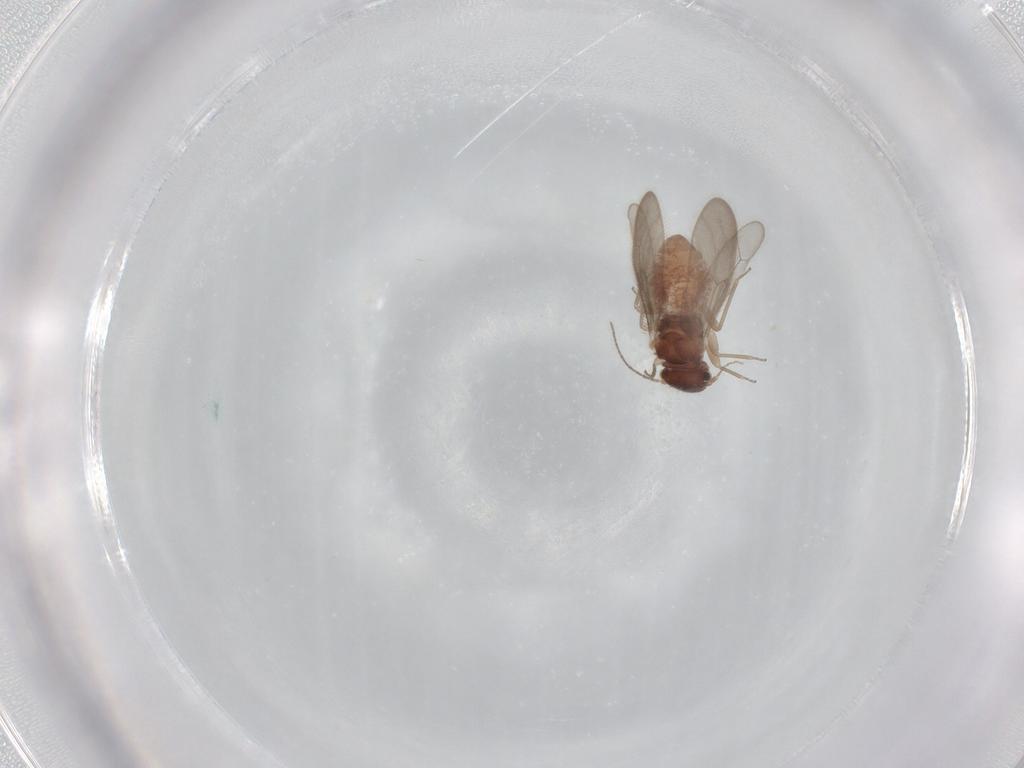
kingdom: Animalia
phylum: Arthropoda
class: Insecta
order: Psocodea
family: Archipsocidae
